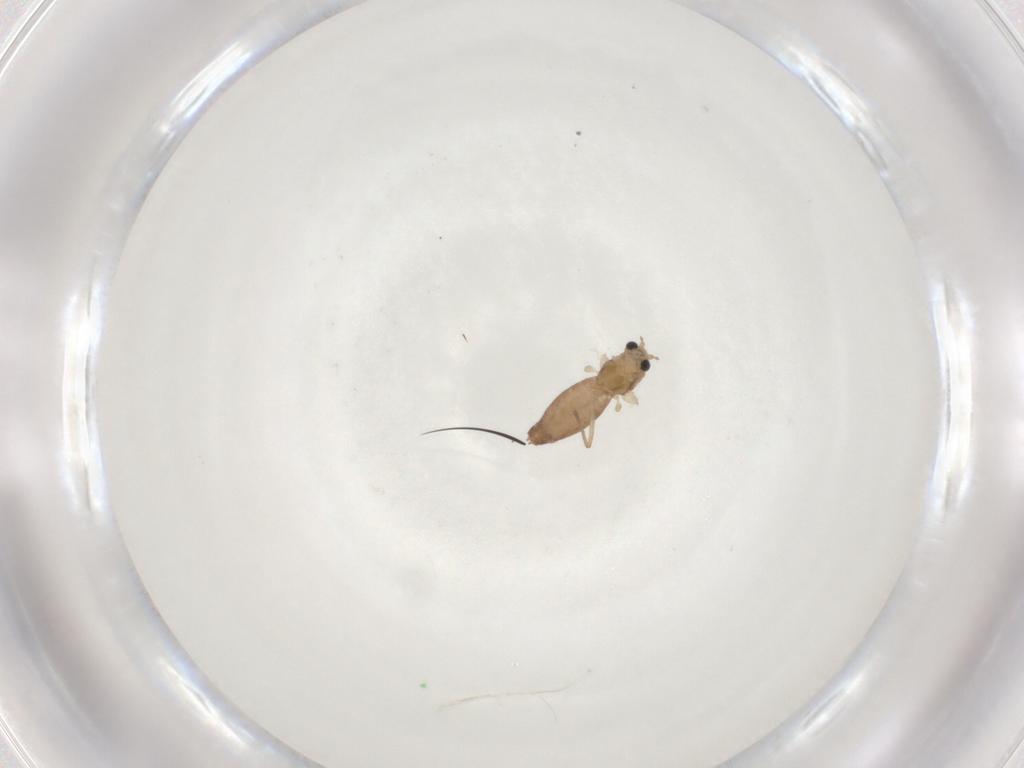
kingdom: Animalia
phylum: Arthropoda
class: Insecta
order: Diptera
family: Chironomidae
